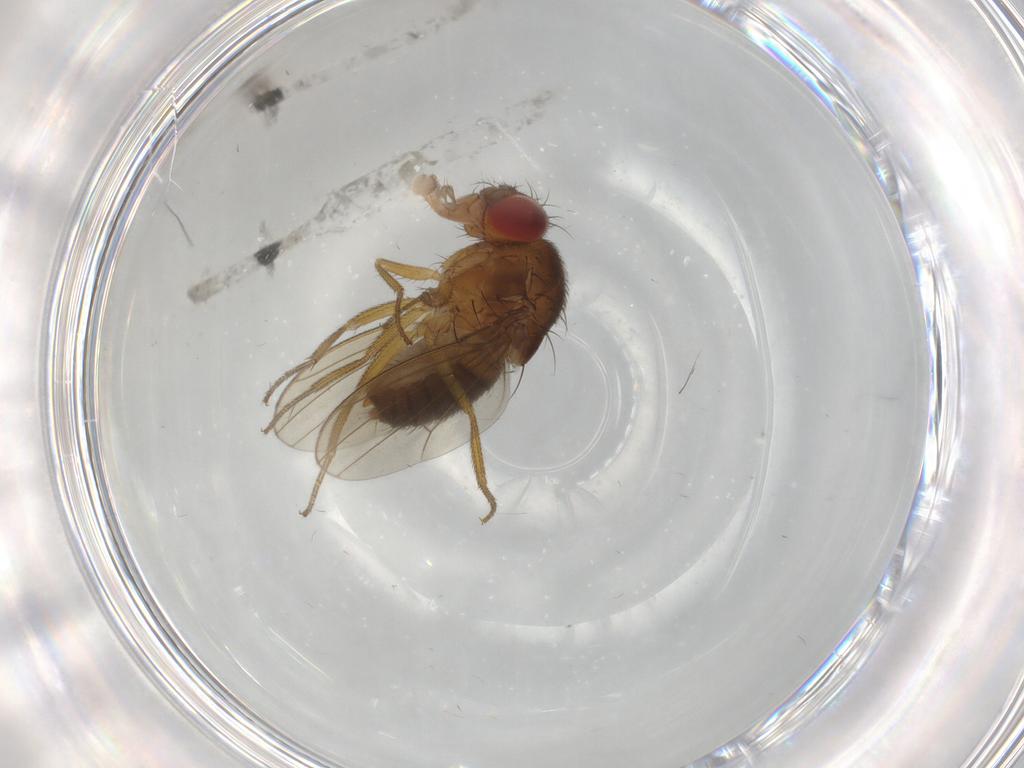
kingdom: Animalia
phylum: Arthropoda
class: Insecta
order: Diptera
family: Drosophilidae
